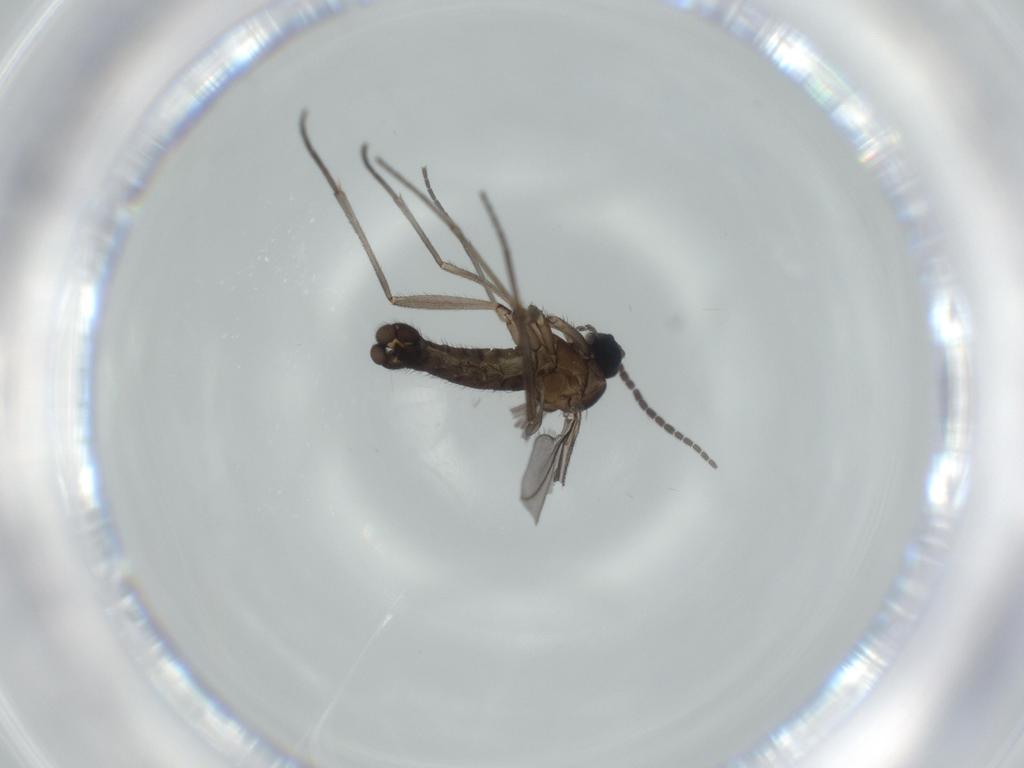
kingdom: Animalia
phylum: Arthropoda
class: Insecta
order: Diptera
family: Sciaridae
